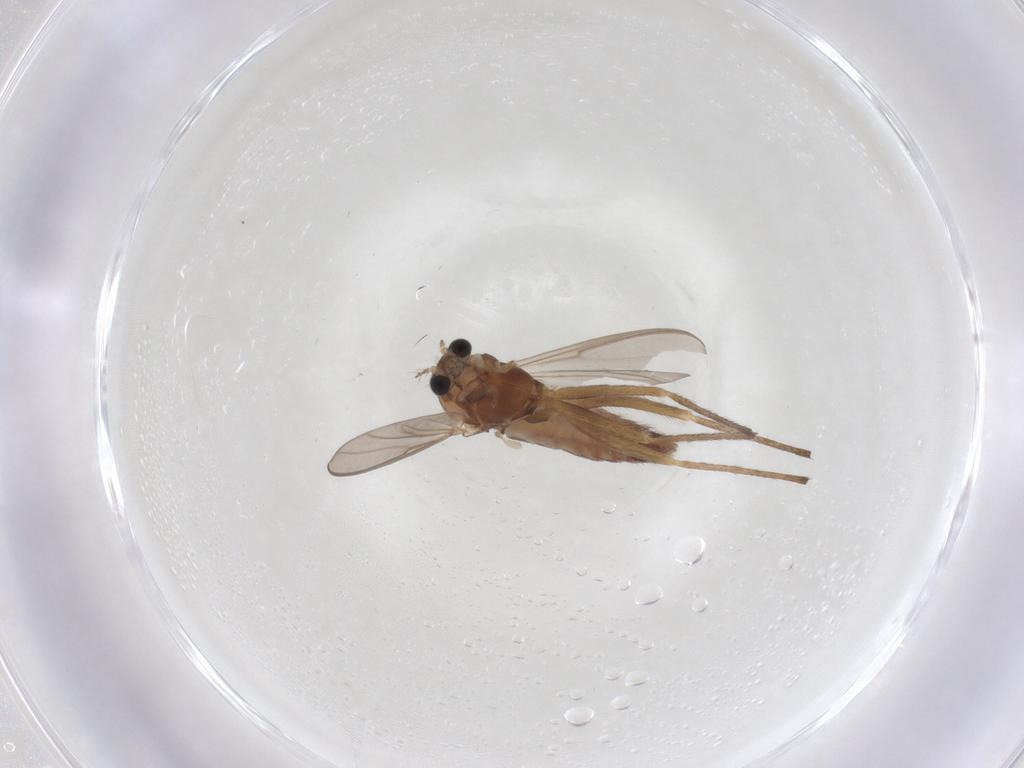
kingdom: Animalia
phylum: Arthropoda
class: Insecta
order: Diptera
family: Chironomidae
